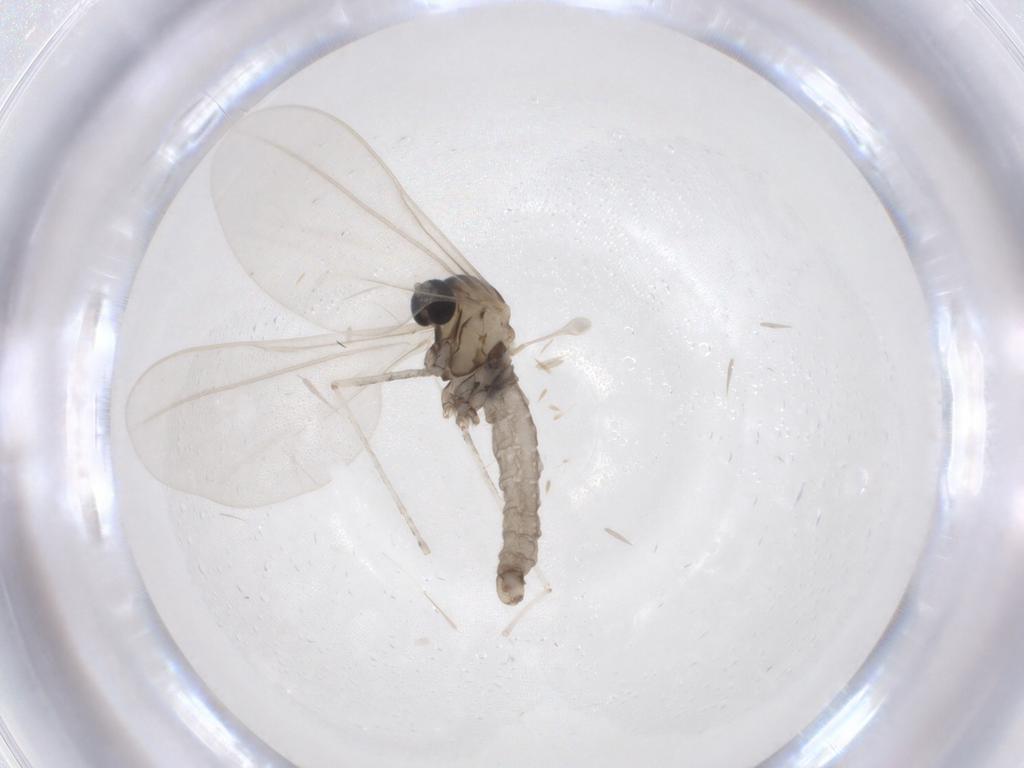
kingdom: Animalia
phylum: Arthropoda
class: Insecta
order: Diptera
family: Cecidomyiidae
